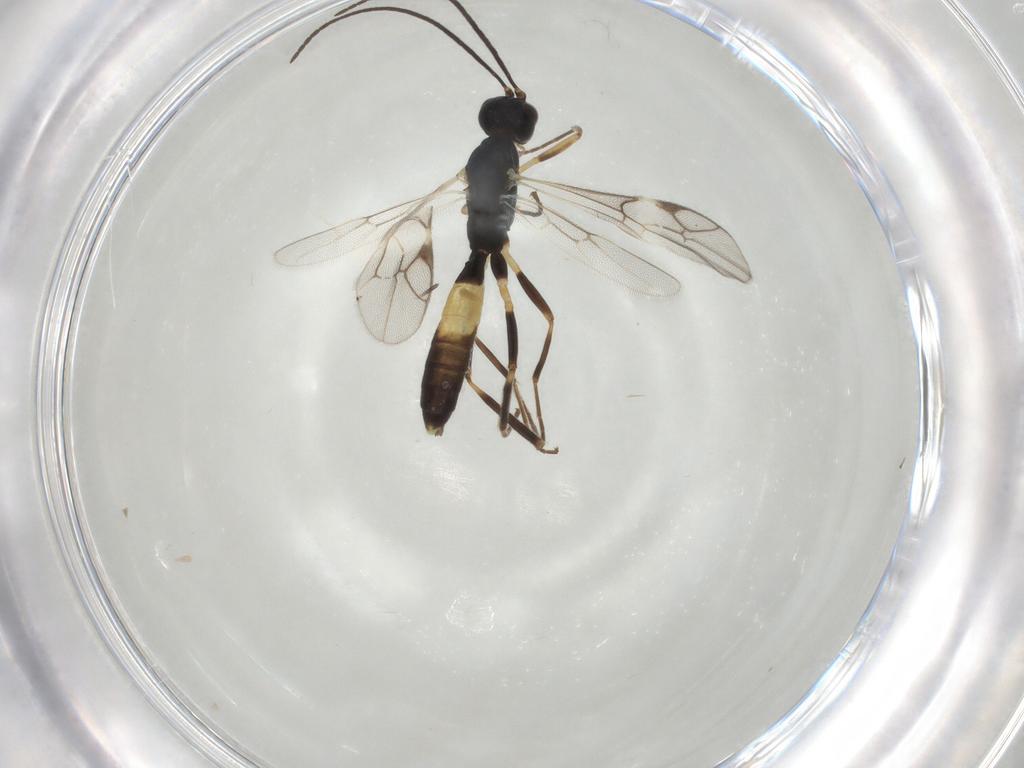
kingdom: Animalia
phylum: Arthropoda
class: Insecta
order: Hymenoptera
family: Ichneumonidae
